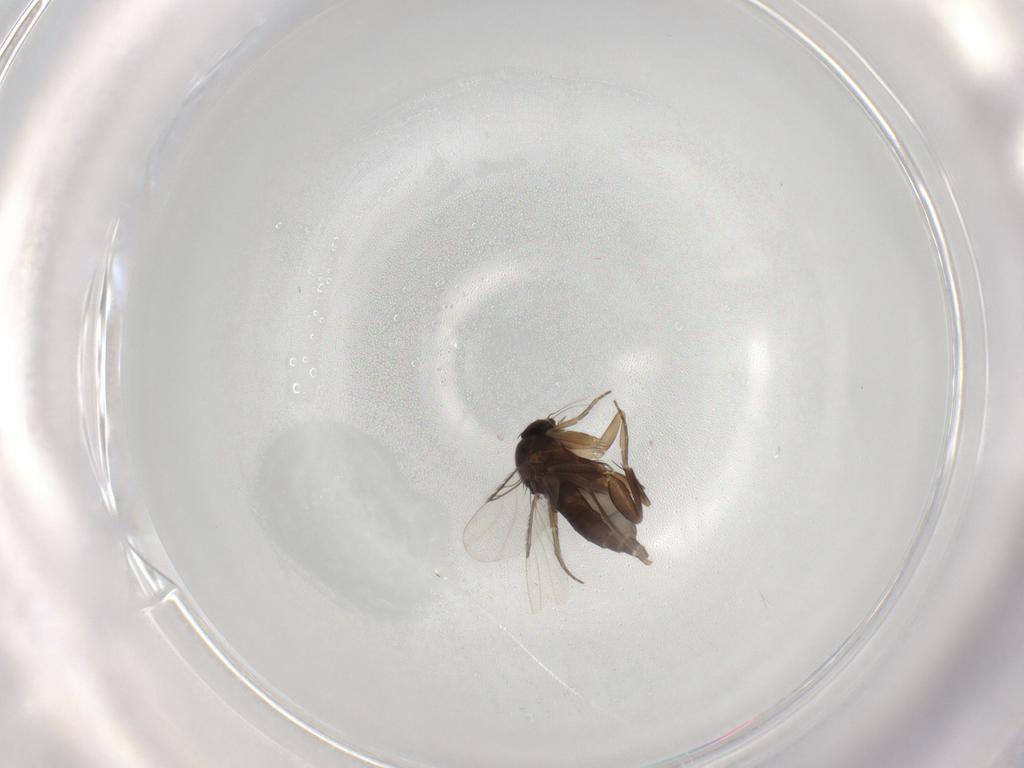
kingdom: Animalia
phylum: Arthropoda
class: Insecta
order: Diptera
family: Phoridae
